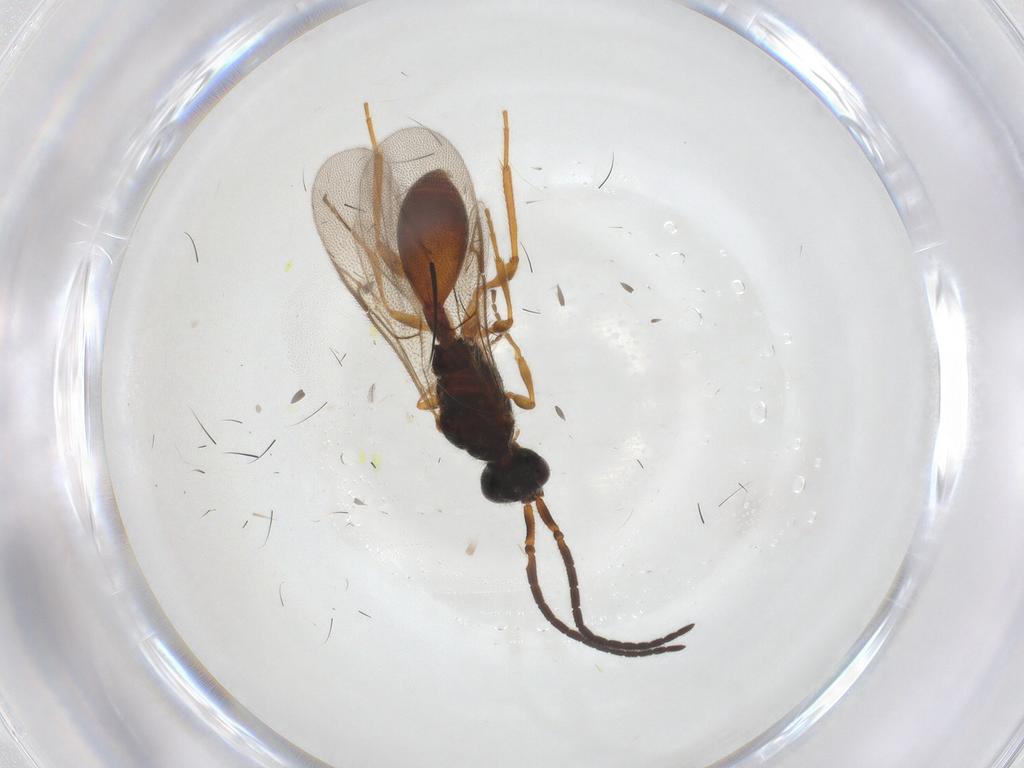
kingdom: Animalia
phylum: Arthropoda
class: Insecta
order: Hymenoptera
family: Diapriidae
